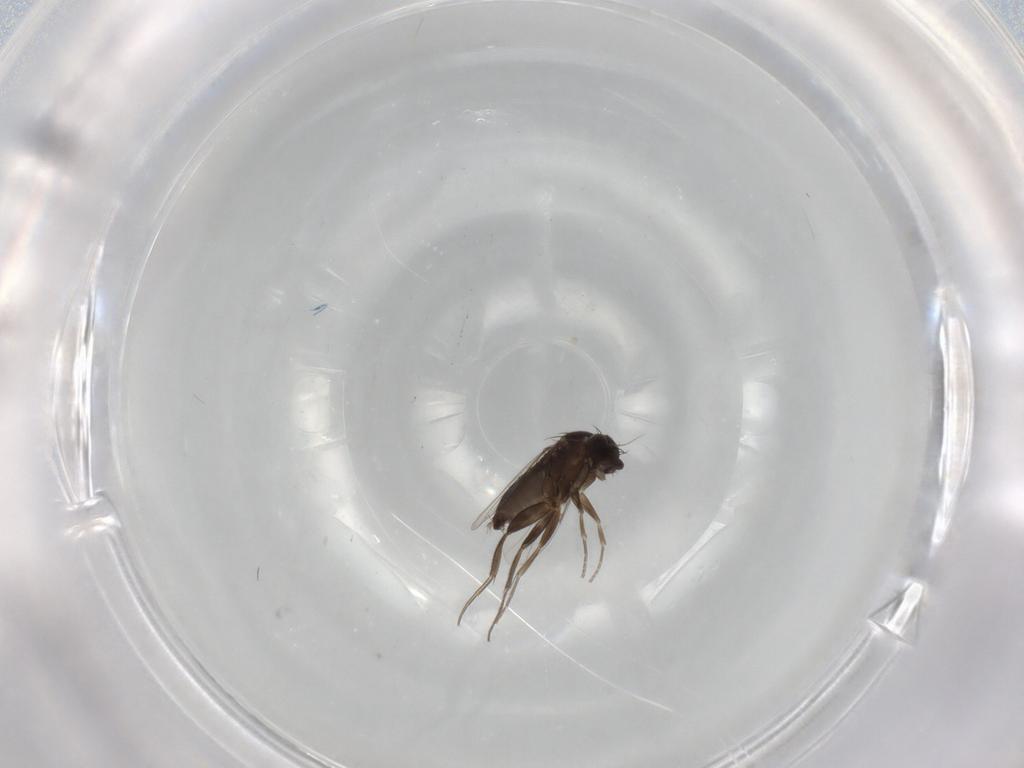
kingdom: Animalia
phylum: Arthropoda
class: Insecta
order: Diptera
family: Phoridae
